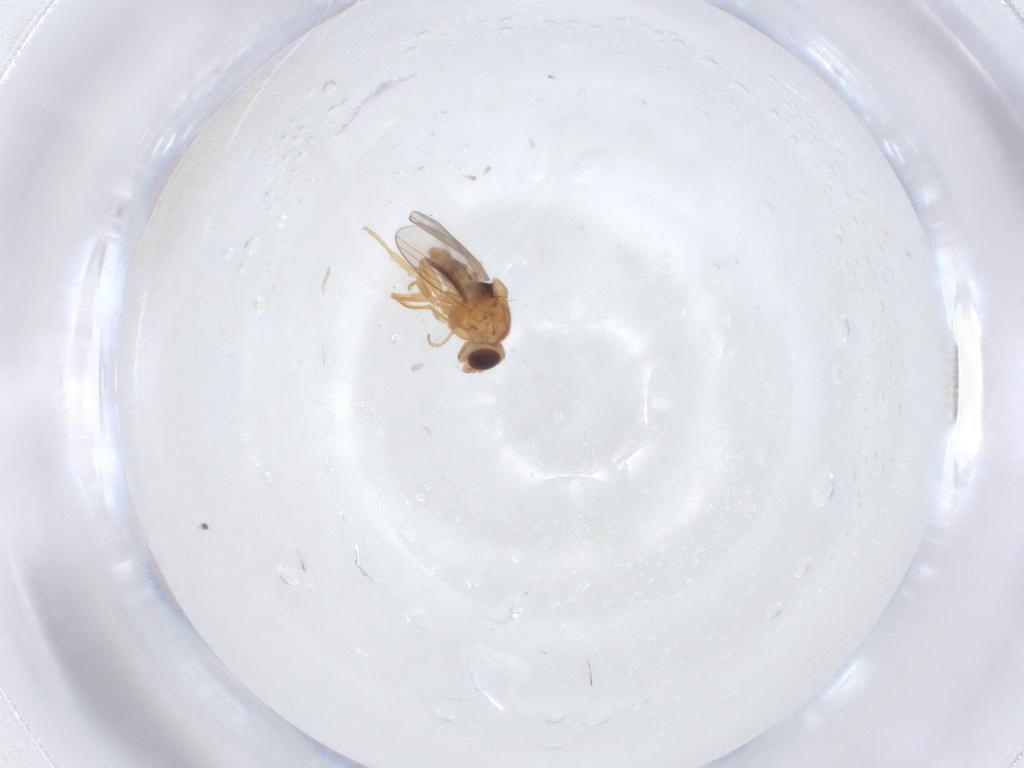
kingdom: Animalia
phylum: Arthropoda
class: Insecta
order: Diptera
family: Chloropidae
